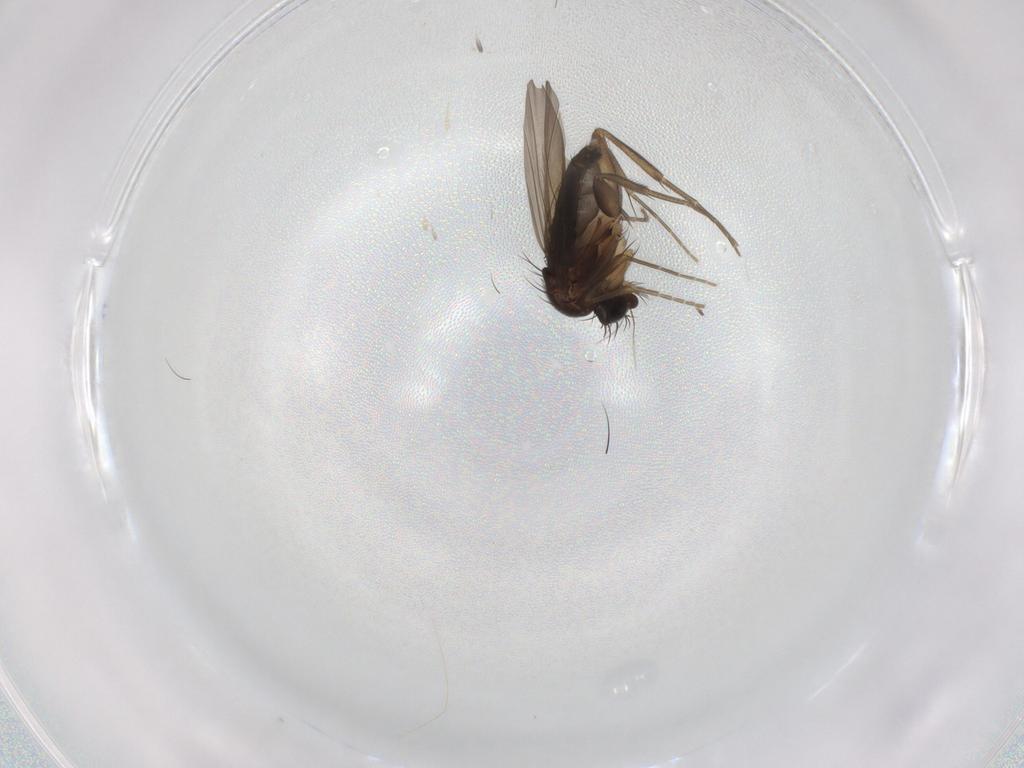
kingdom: Animalia
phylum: Arthropoda
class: Insecta
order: Diptera
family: Phoridae
